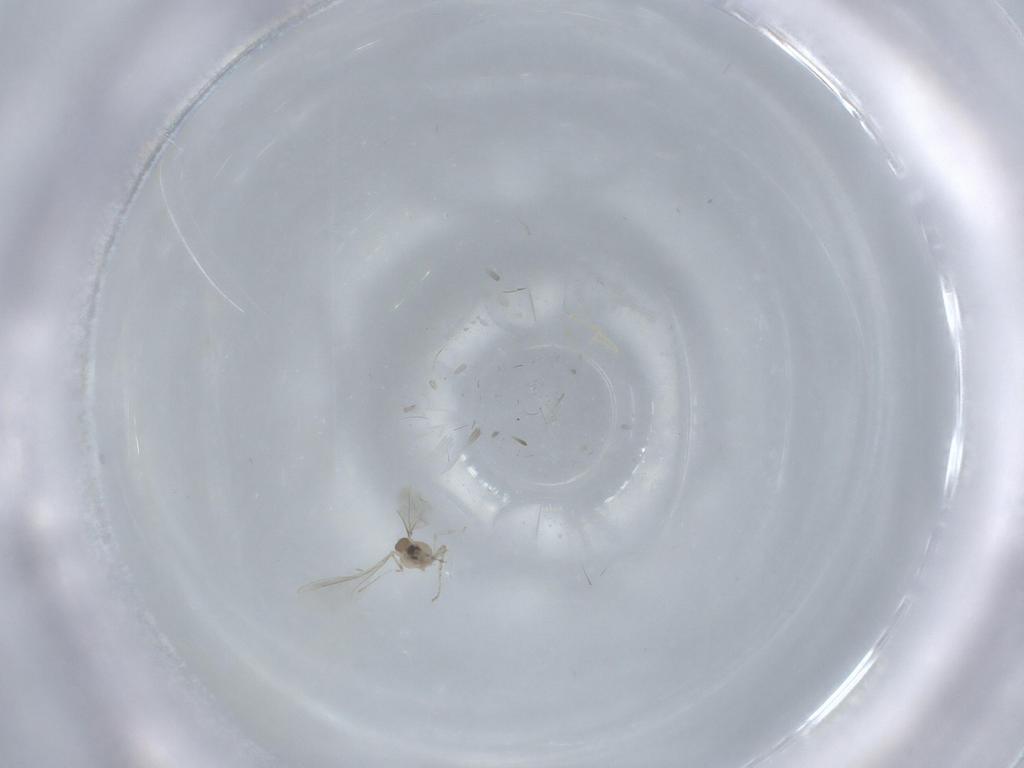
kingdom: Animalia
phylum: Arthropoda
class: Insecta
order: Diptera
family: Cecidomyiidae
